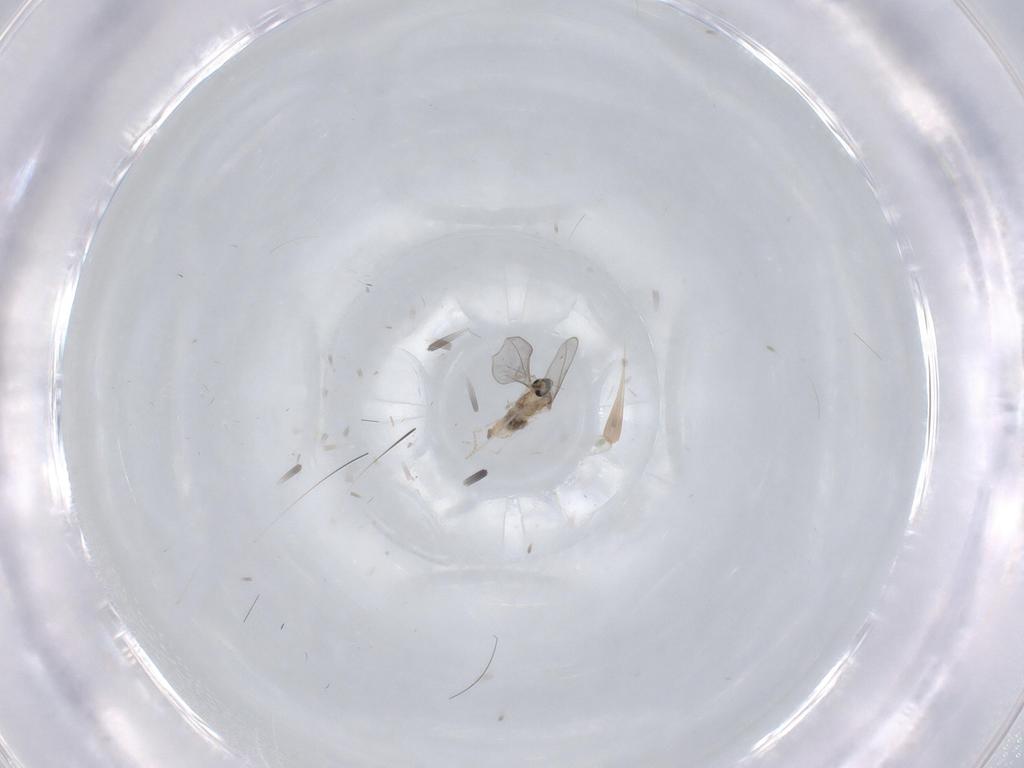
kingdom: Animalia
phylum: Arthropoda
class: Insecta
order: Diptera
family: Cecidomyiidae
